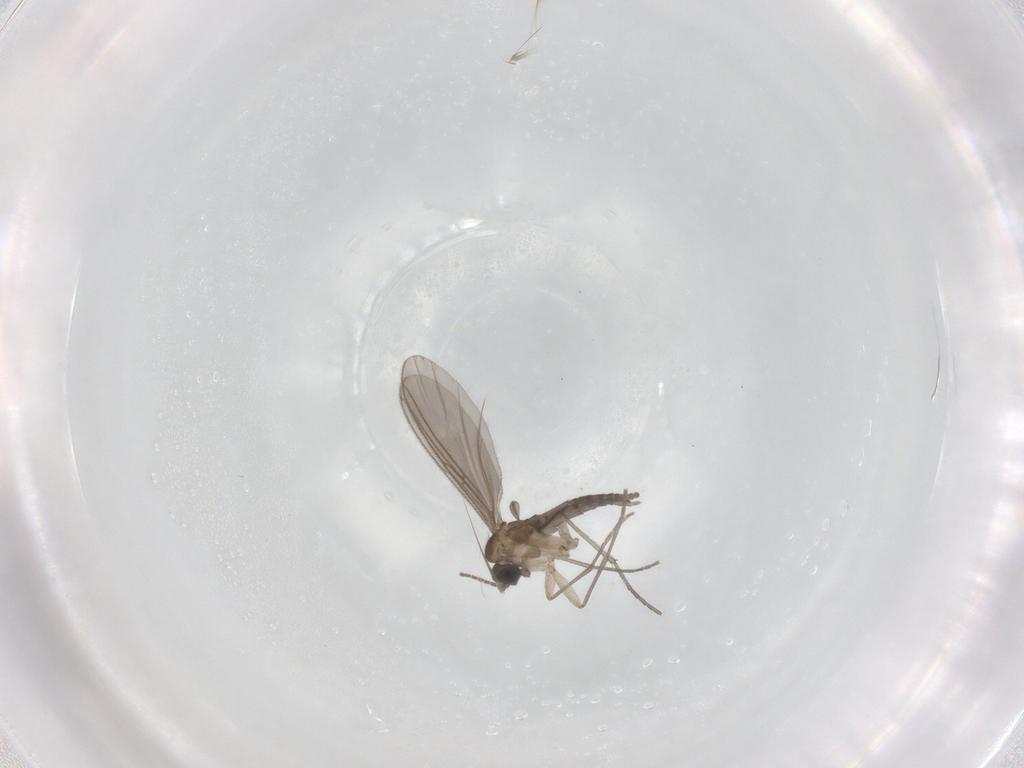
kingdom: Animalia
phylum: Arthropoda
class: Insecta
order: Diptera
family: Sciaridae
